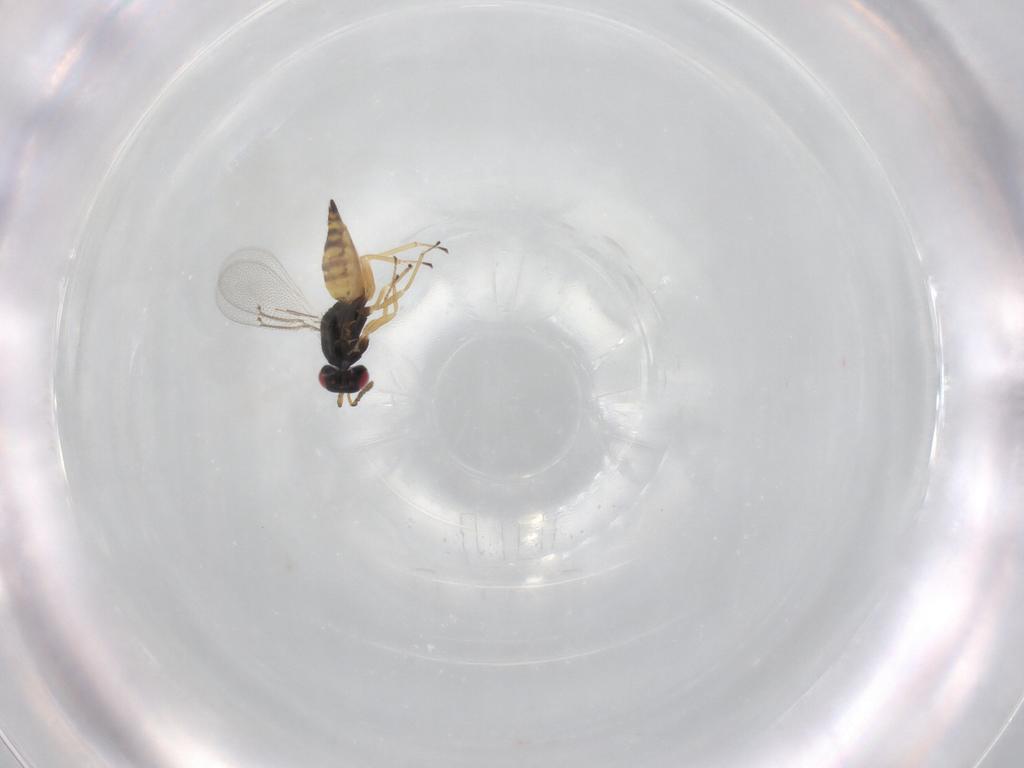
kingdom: Animalia
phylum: Arthropoda
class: Insecta
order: Hymenoptera
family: Eulophidae
